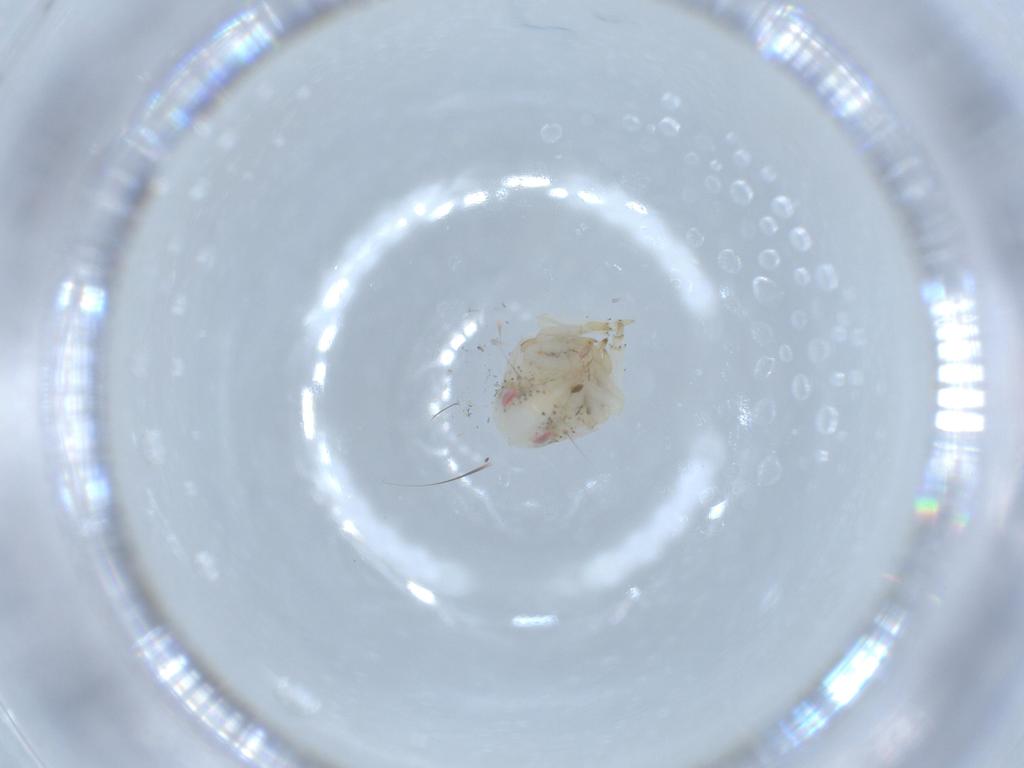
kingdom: Animalia
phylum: Arthropoda
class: Insecta
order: Hemiptera
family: Acanaloniidae
